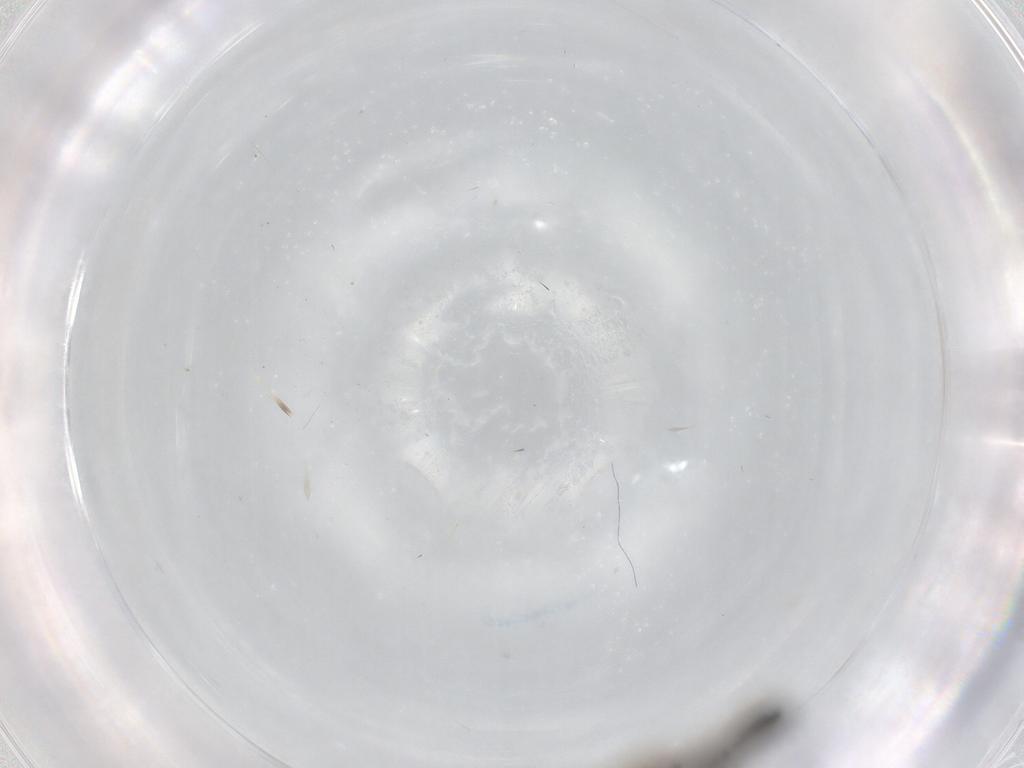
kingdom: Animalia
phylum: Arthropoda
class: Insecta
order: Diptera
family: Mycetophilidae
